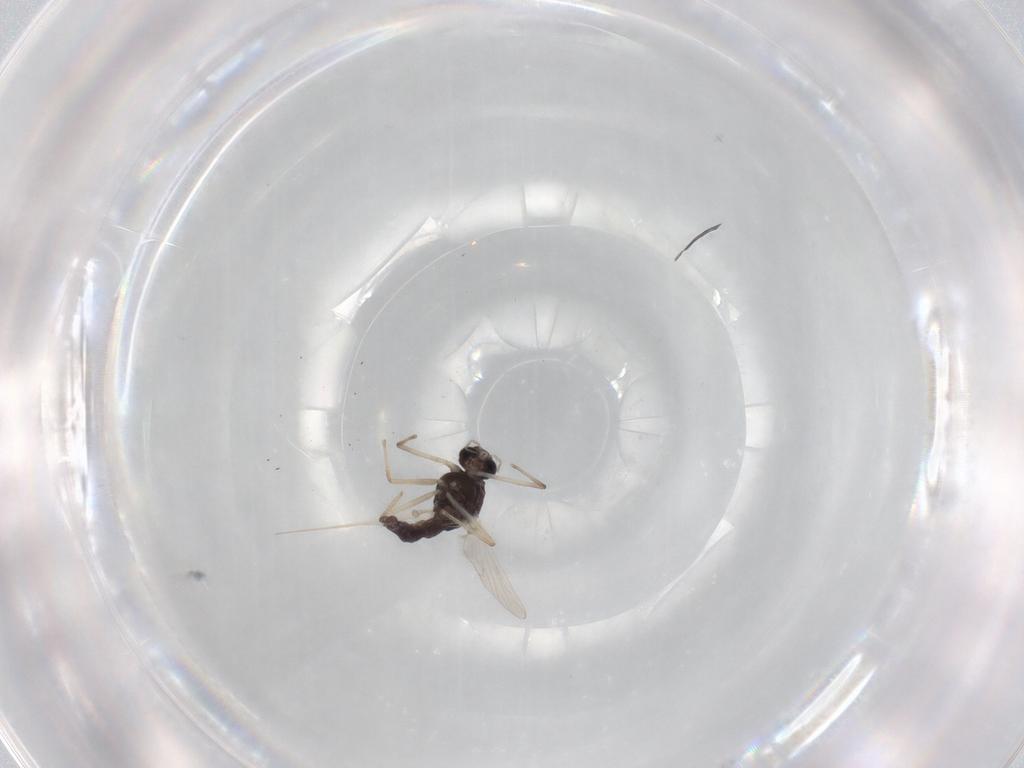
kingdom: Animalia
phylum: Arthropoda
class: Insecta
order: Diptera
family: Chironomidae
